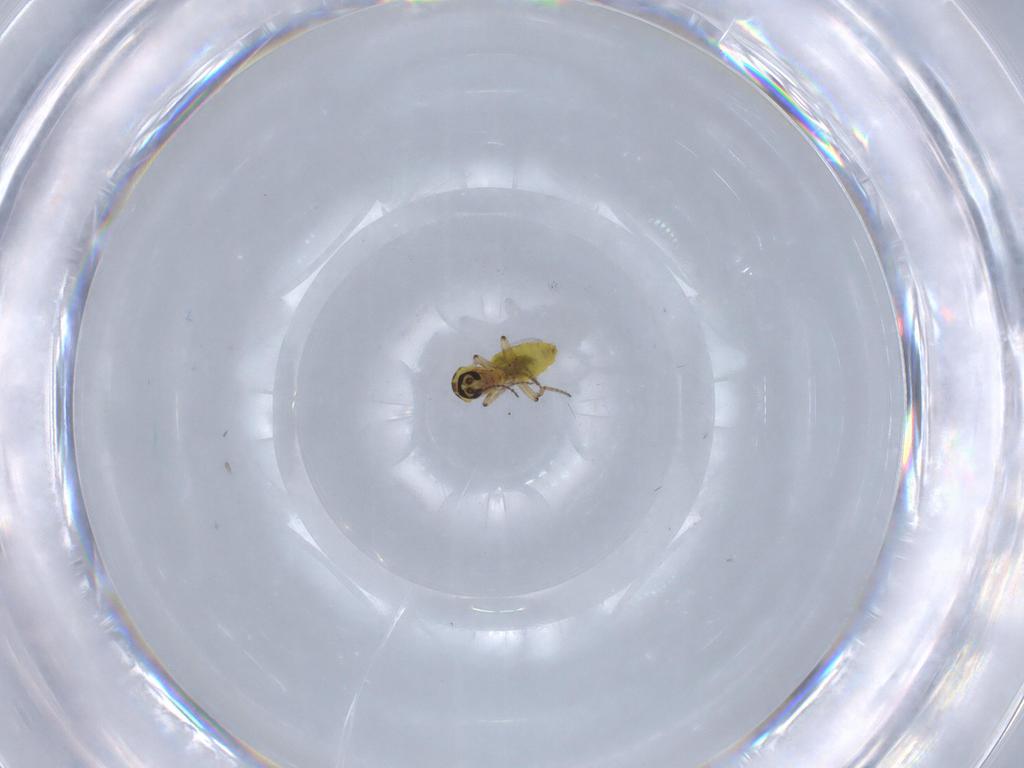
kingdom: Animalia
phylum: Arthropoda
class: Insecta
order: Diptera
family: Ceratopogonidae
